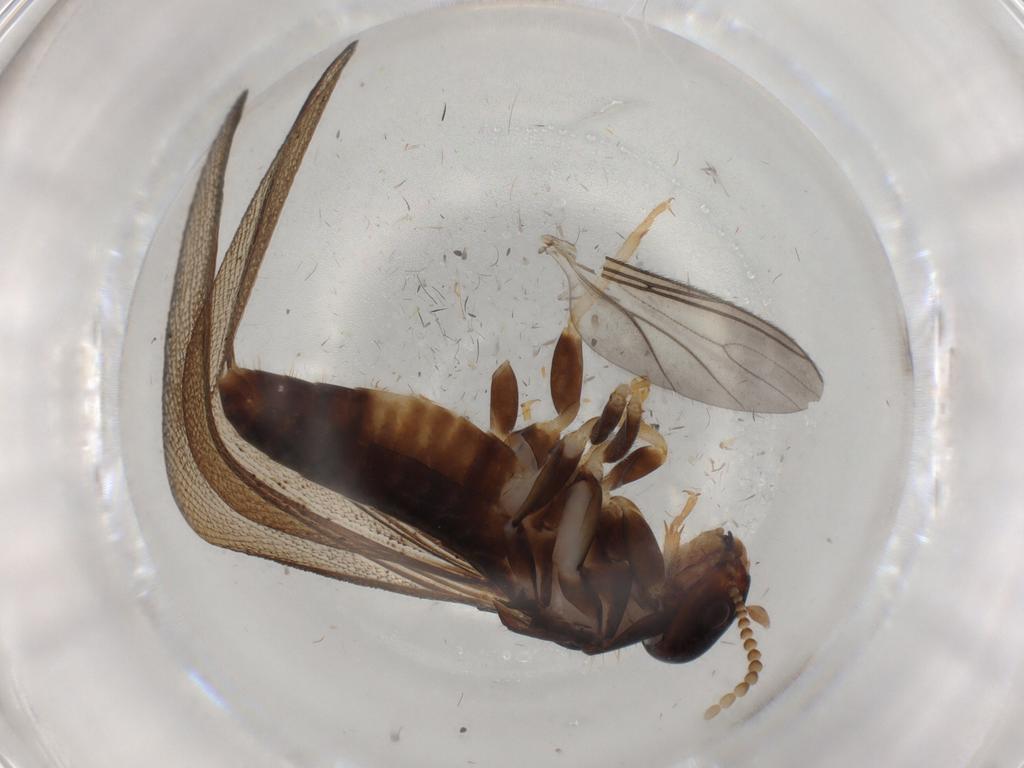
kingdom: Animalia
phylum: Arthropoda
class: Insecta
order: Blattodea
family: Kalotermitidae
